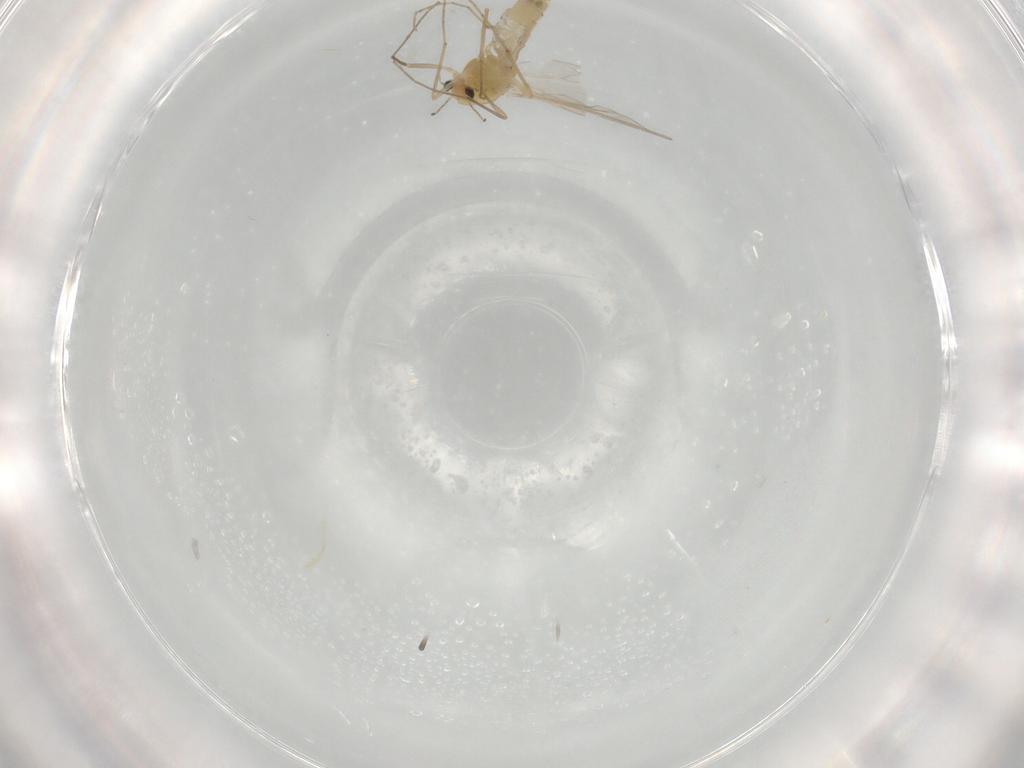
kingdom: Animalia
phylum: Arthropoda
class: Insecta
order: Diptera
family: Chironomidae
